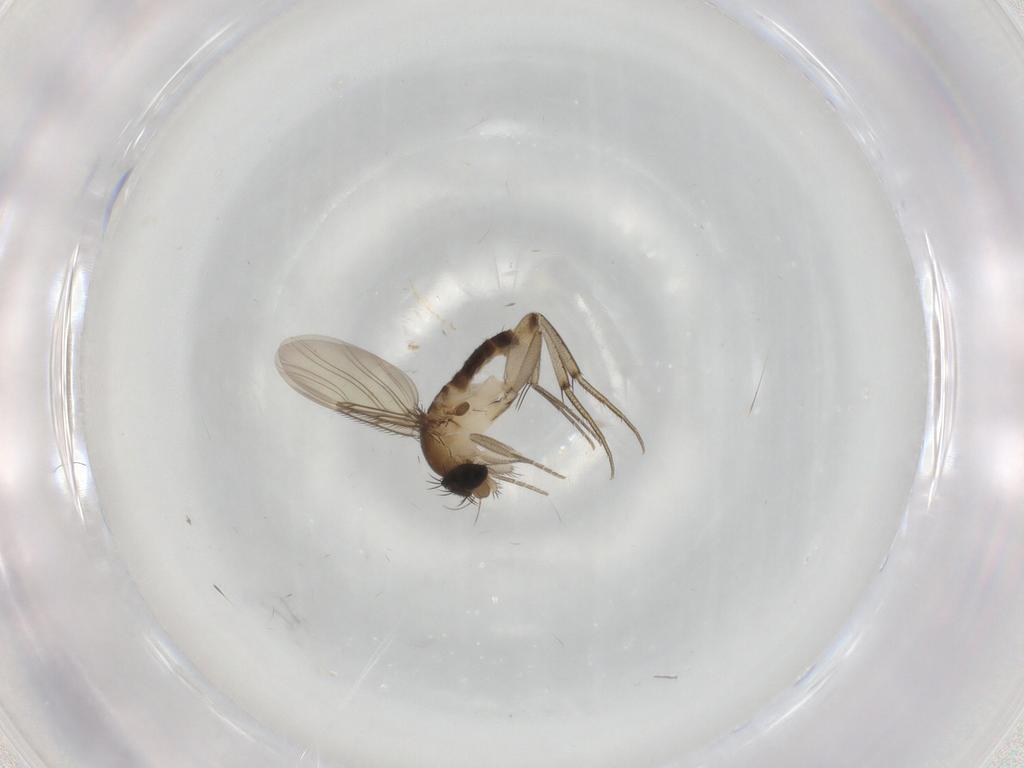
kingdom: Animalia
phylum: Arthropoda
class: Insecta
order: Diptera
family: Phoridae
